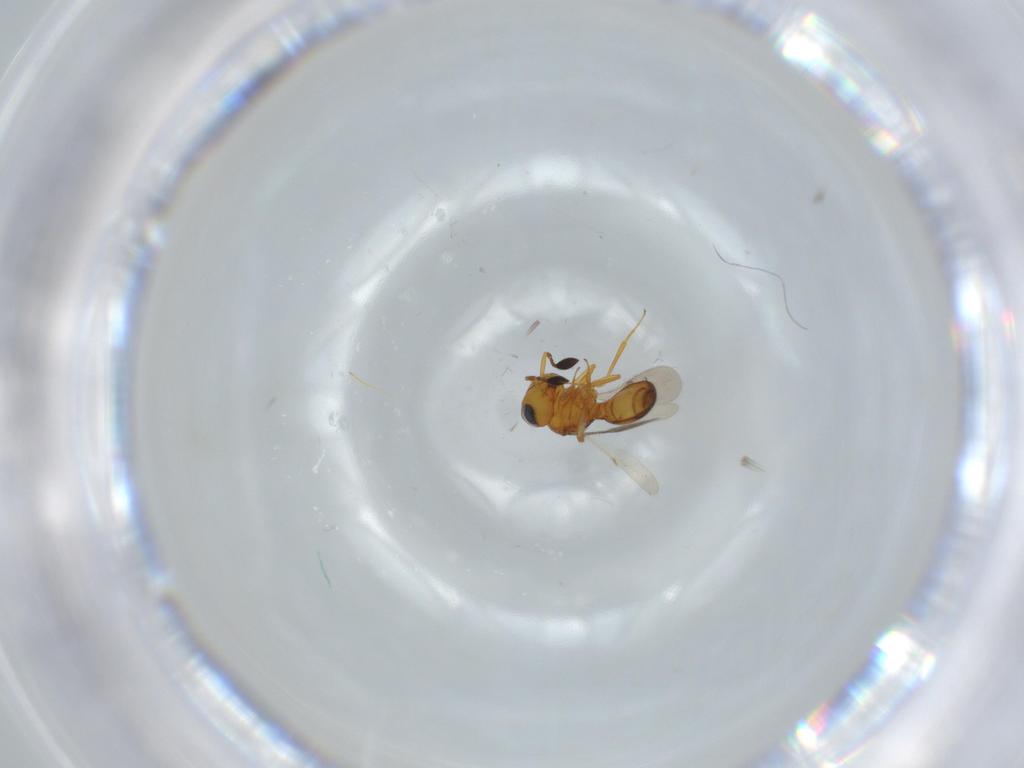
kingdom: Animalia
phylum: Arthropoda
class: Insecta
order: Hymenoptera
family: Scelionidae
